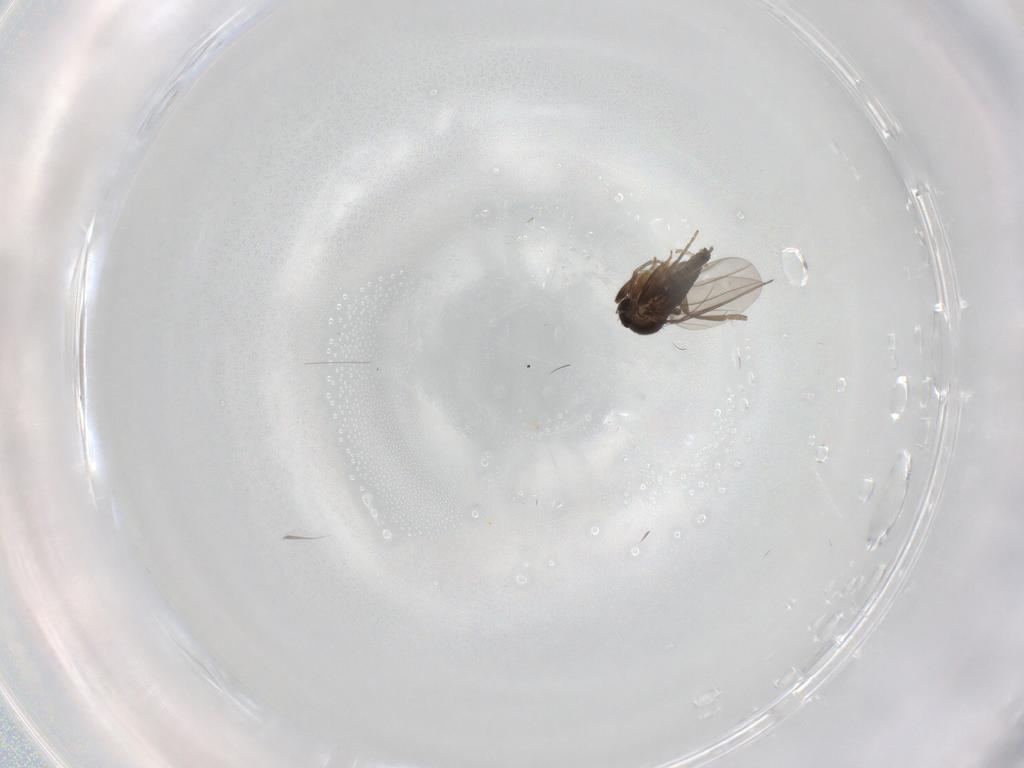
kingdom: Animalia
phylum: Arthropoda
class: Insecta
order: Diptera
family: Phoridae
